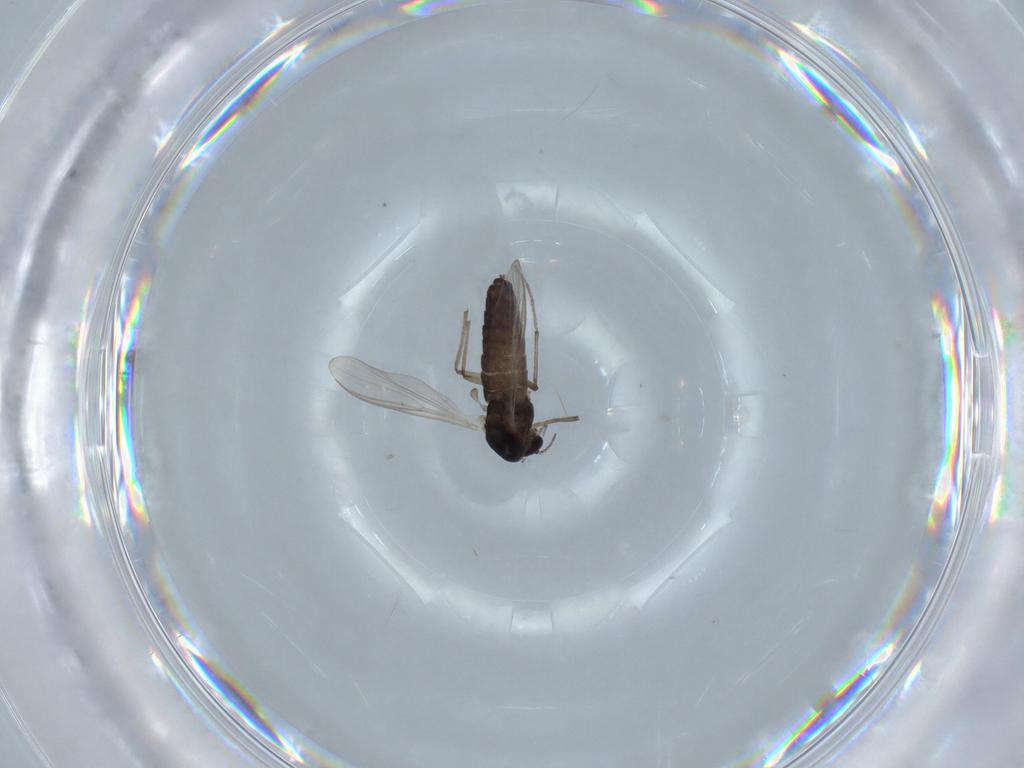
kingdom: Animalia
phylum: Arthropoda
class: Insecta
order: Diptera
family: Chironomidae
